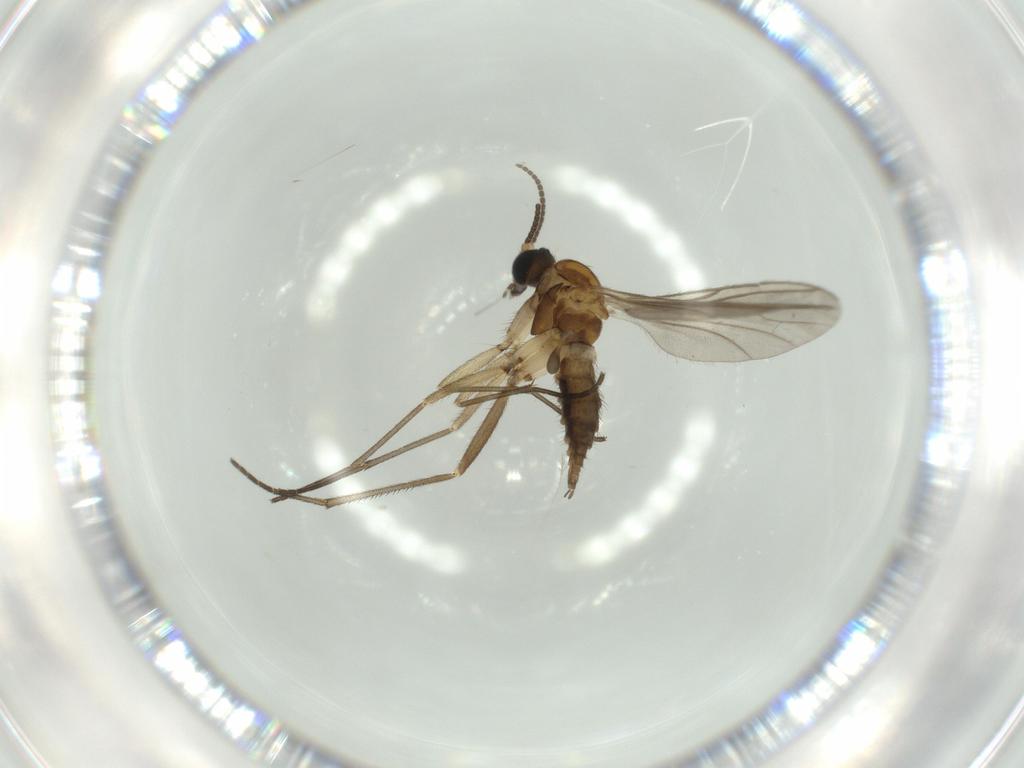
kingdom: Animalia
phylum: Arthropoda
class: Insecta
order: Diptera
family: Sciaridae
